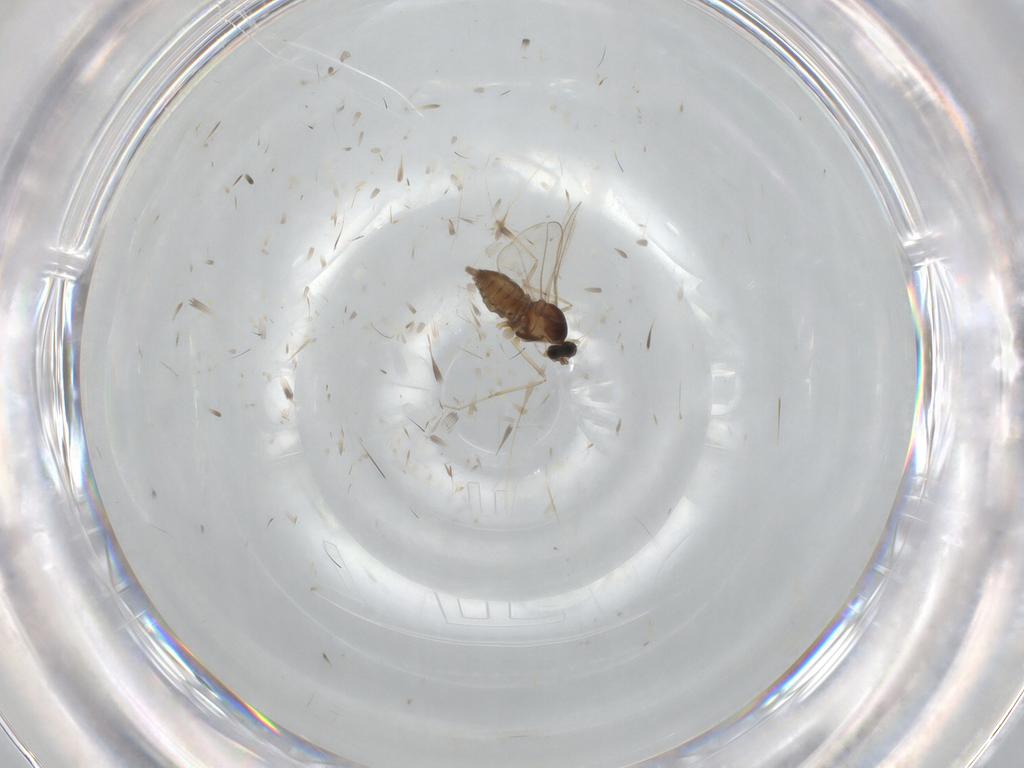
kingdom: Animalia
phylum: Arthropoda
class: Insecta
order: Diptera
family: Cecidomyiidae
